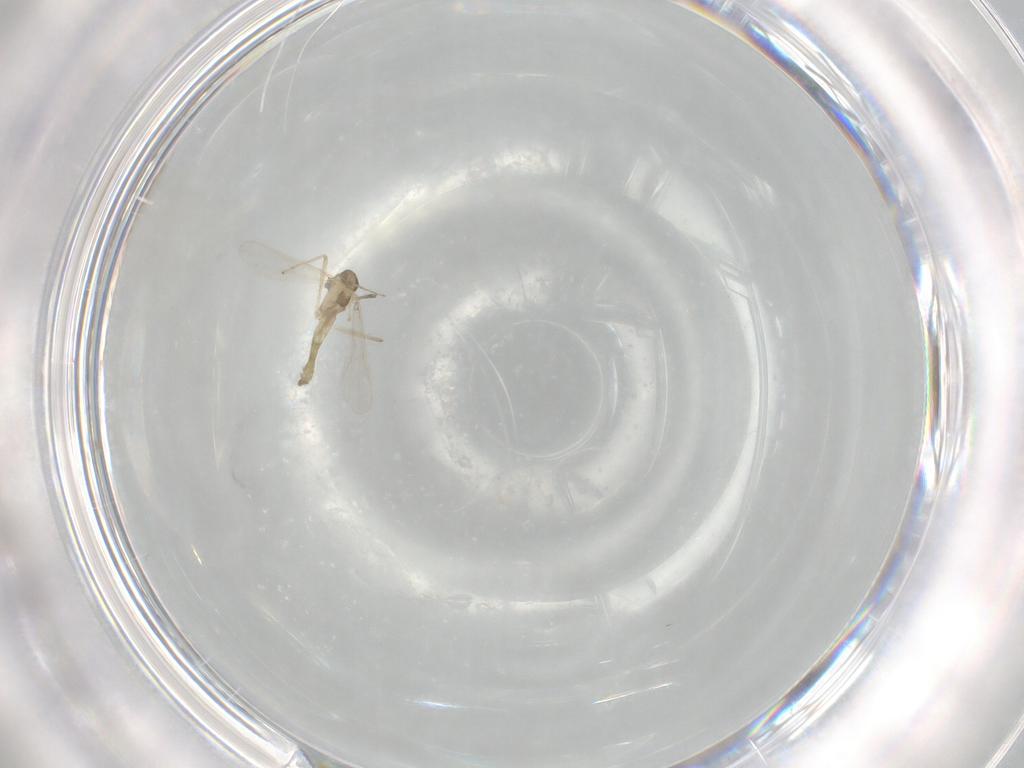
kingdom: Animalia
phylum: Arthropoda
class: Insecta
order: Diptera
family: Chironomidae
